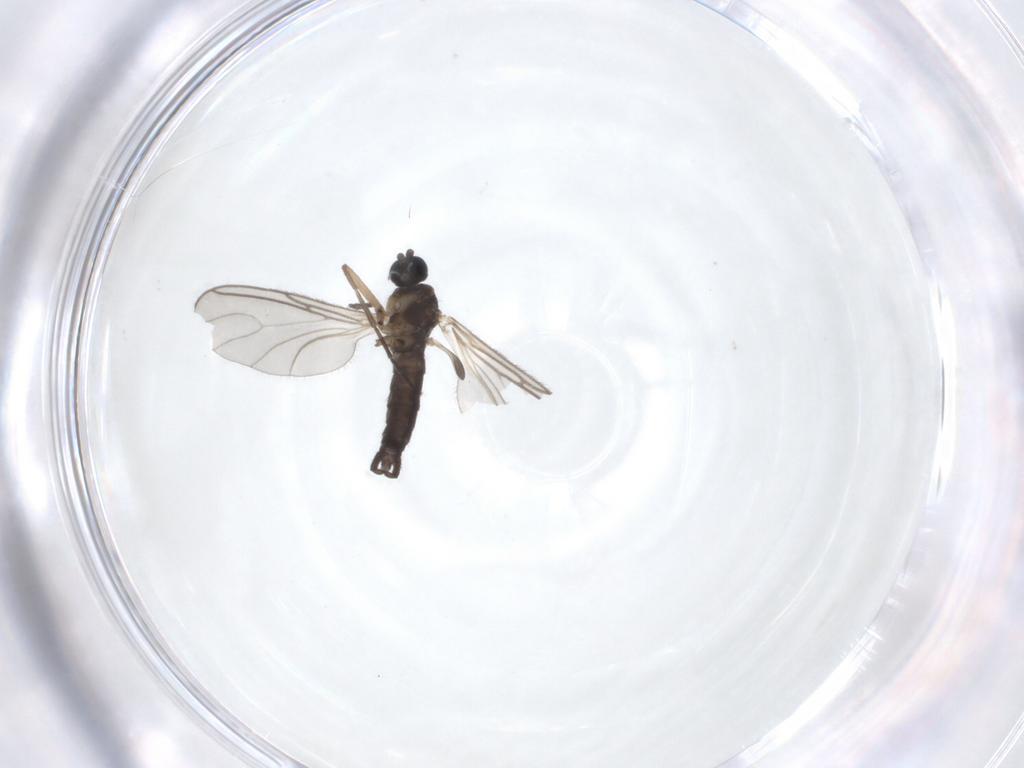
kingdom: Animalia
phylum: Arthropoda
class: Insecta
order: Diptera
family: Sciaridae
